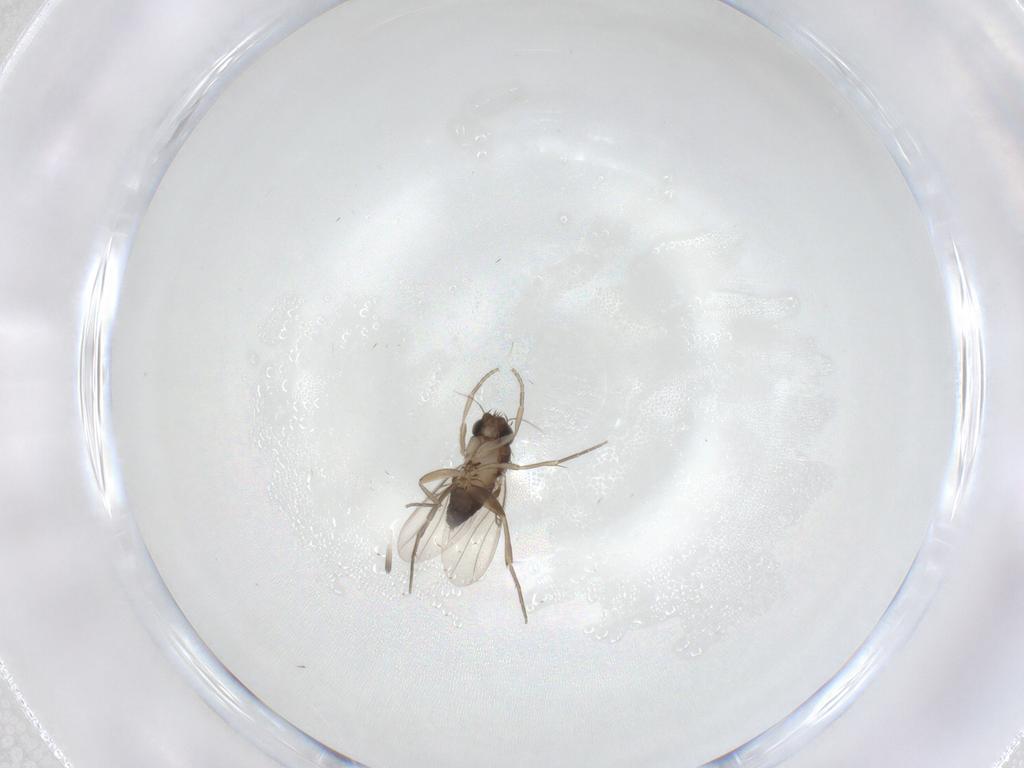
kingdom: Animalia
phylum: Arthropoda
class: Insecta
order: Diptera
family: Phoridae
